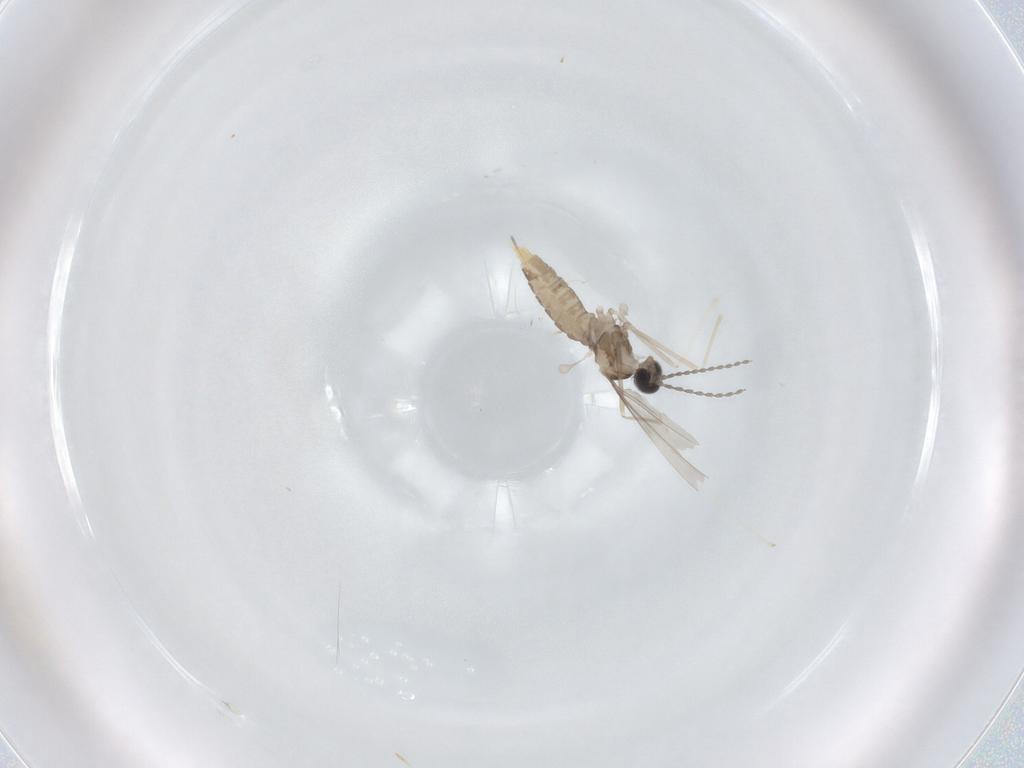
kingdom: Animalia
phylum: Arthropoda
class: Insecta
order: Diptera
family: Cecidomyiidae
